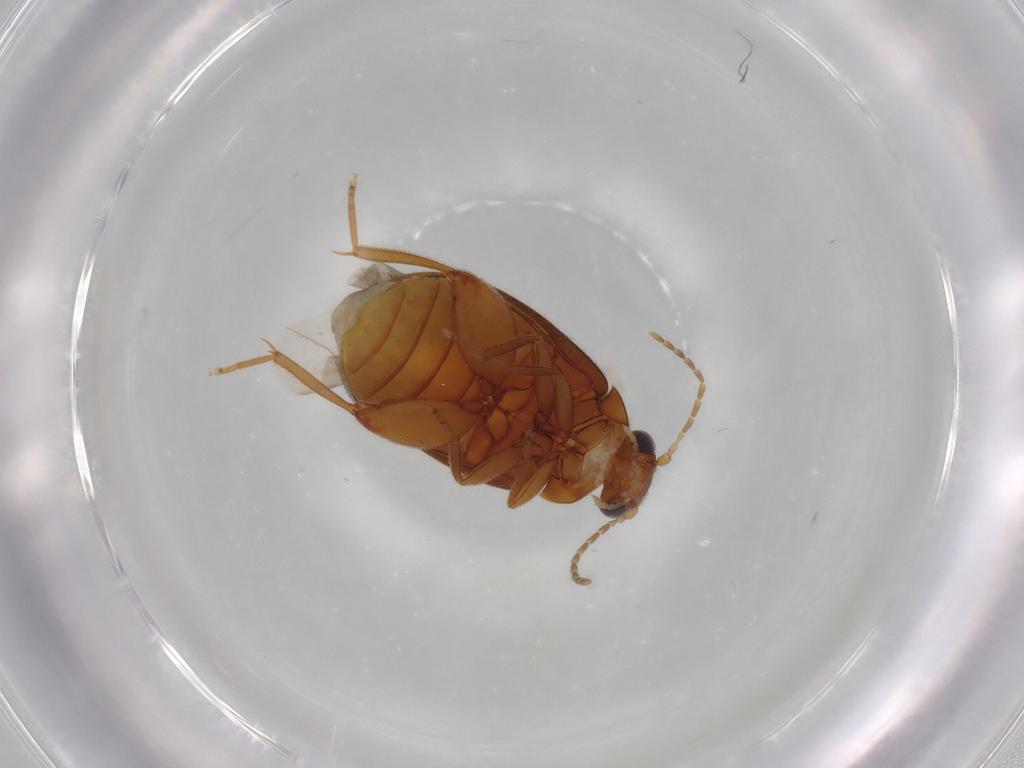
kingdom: Animalia
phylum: Arthropoda
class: Insecta
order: Coleoptera
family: Scirtidae
